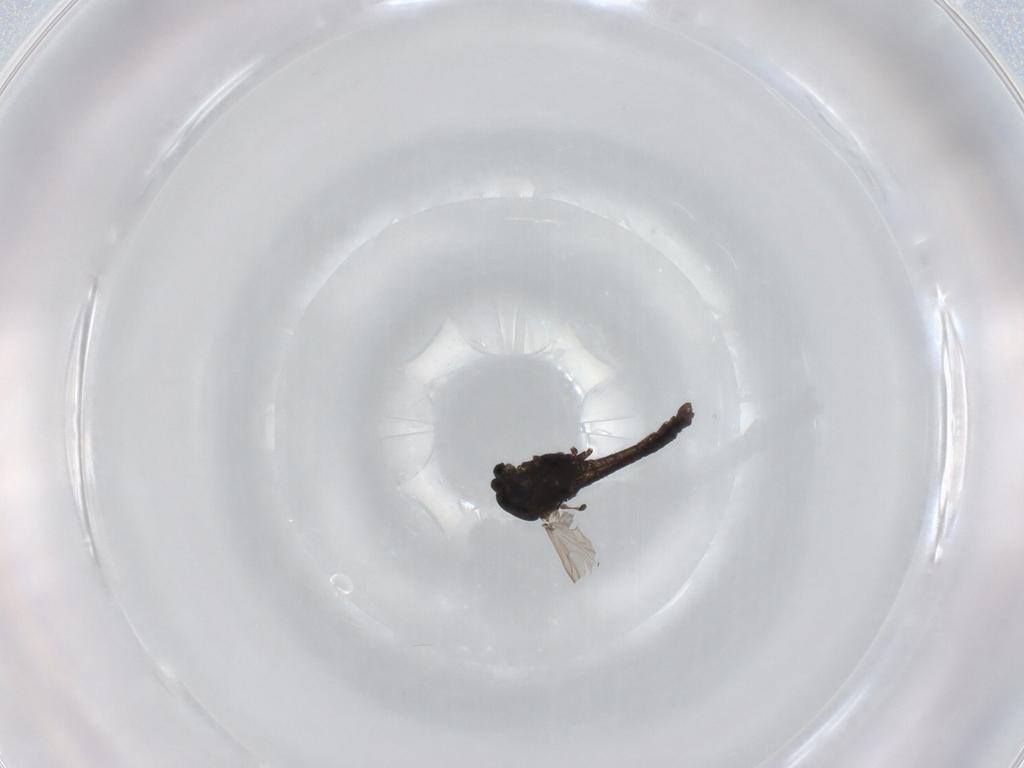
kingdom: Animalia
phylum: Arthropoda
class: Insecta
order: Diptera
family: Chironomidae
